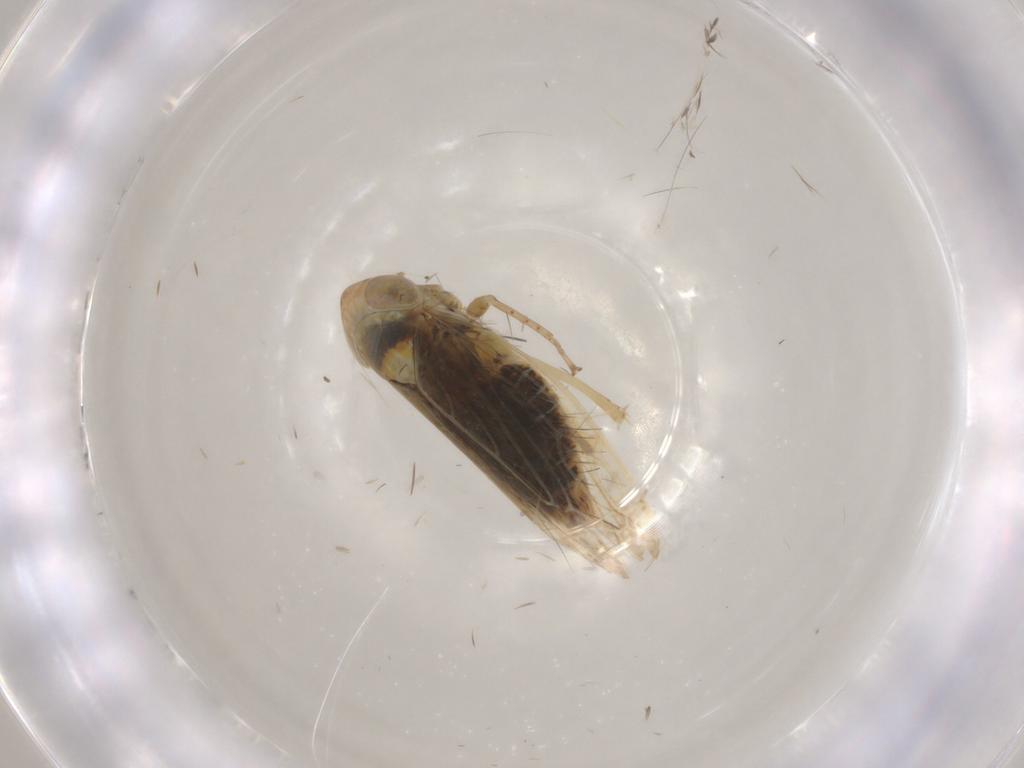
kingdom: Animalia
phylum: Arthropoda
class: Insecta
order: Hemiptera
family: Cicadellidae
